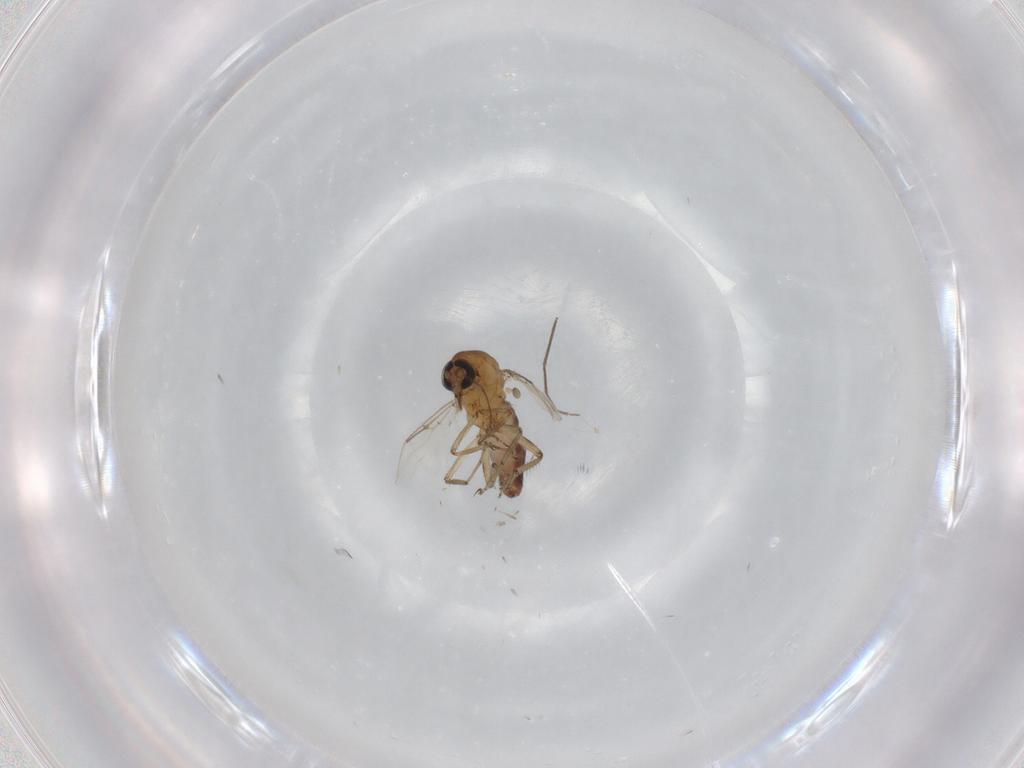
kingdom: Animalia
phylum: Arthropoda
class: Insecta
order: Diptera
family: Ceratopogonidae
